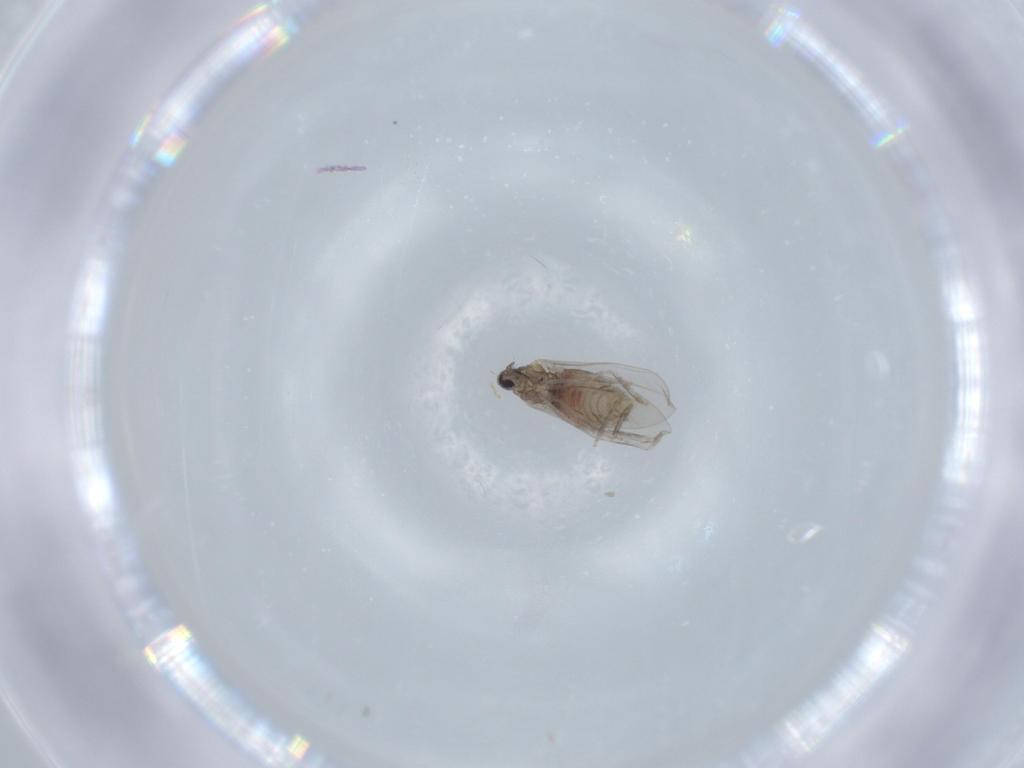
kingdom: Animalia
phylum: Arthropoda
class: Insecta
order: Diptera
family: Cecidomyiidae
